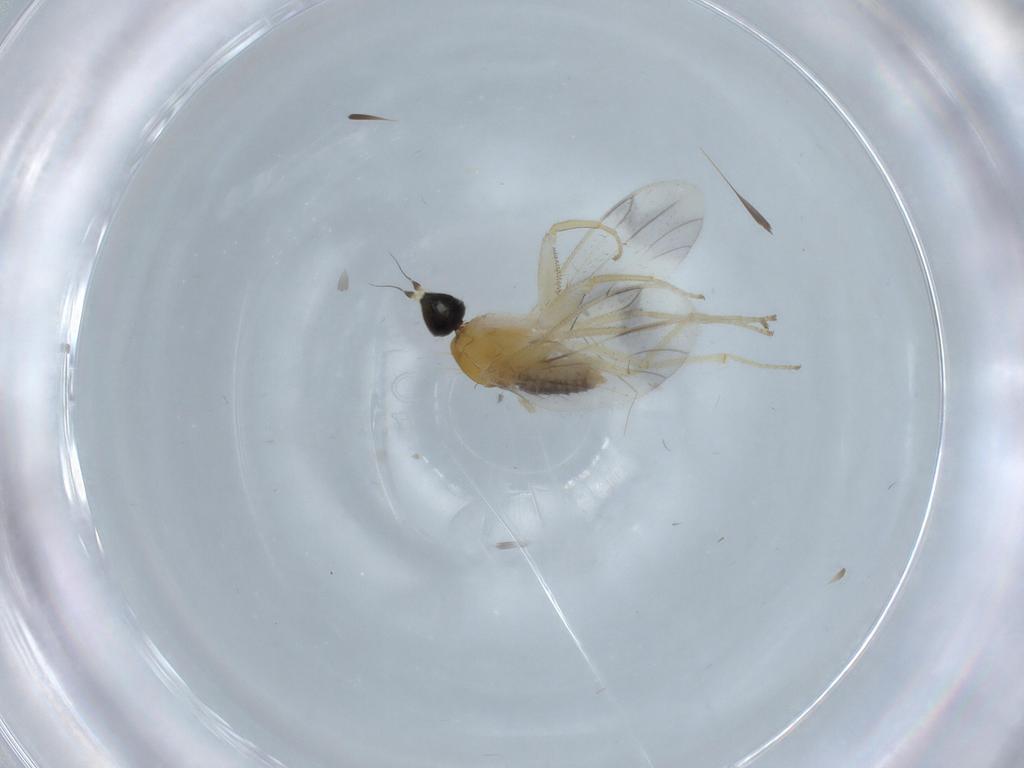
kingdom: Animalia
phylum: Arthropoda
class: Insecta
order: Diptera
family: Empididae
